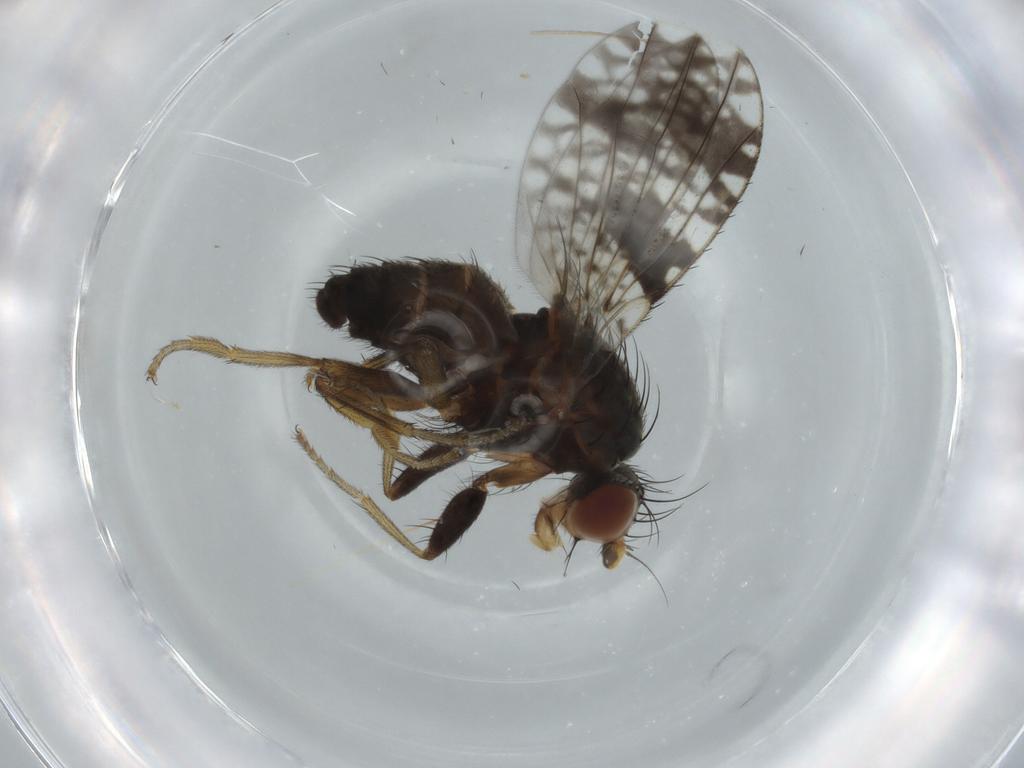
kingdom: Animalia
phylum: Arthropoda
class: Insecta
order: Diptera
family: Tephritidae
